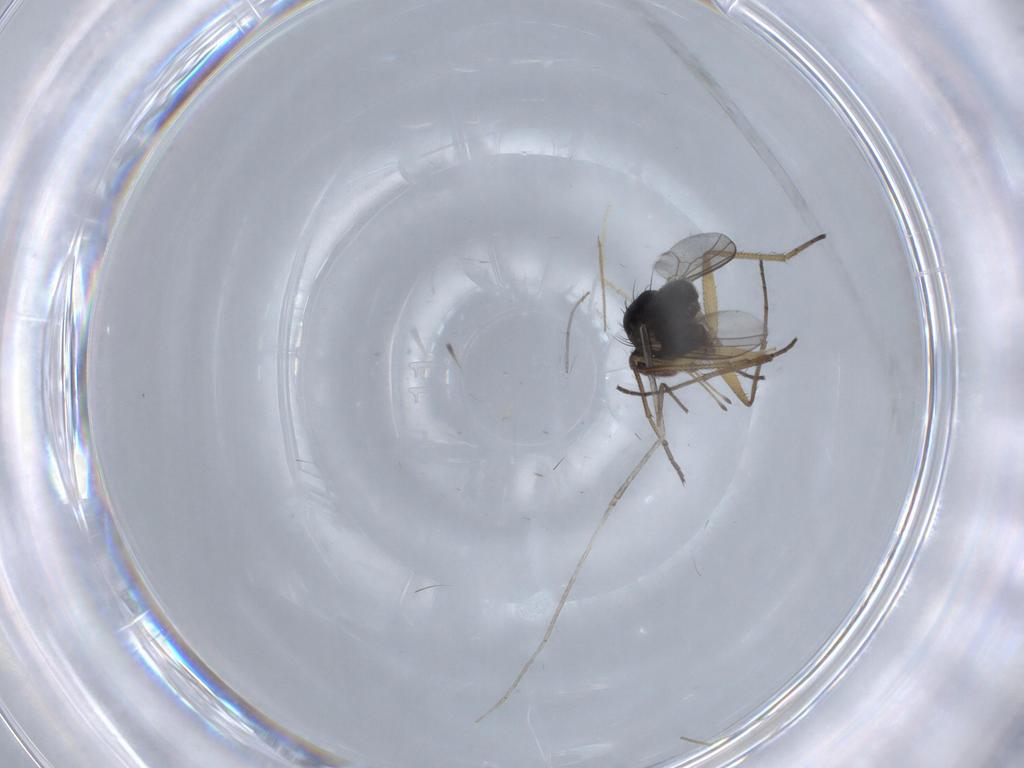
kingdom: Animalia
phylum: Arthropoda
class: Insecta
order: Diptera
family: Dolichopodidae
